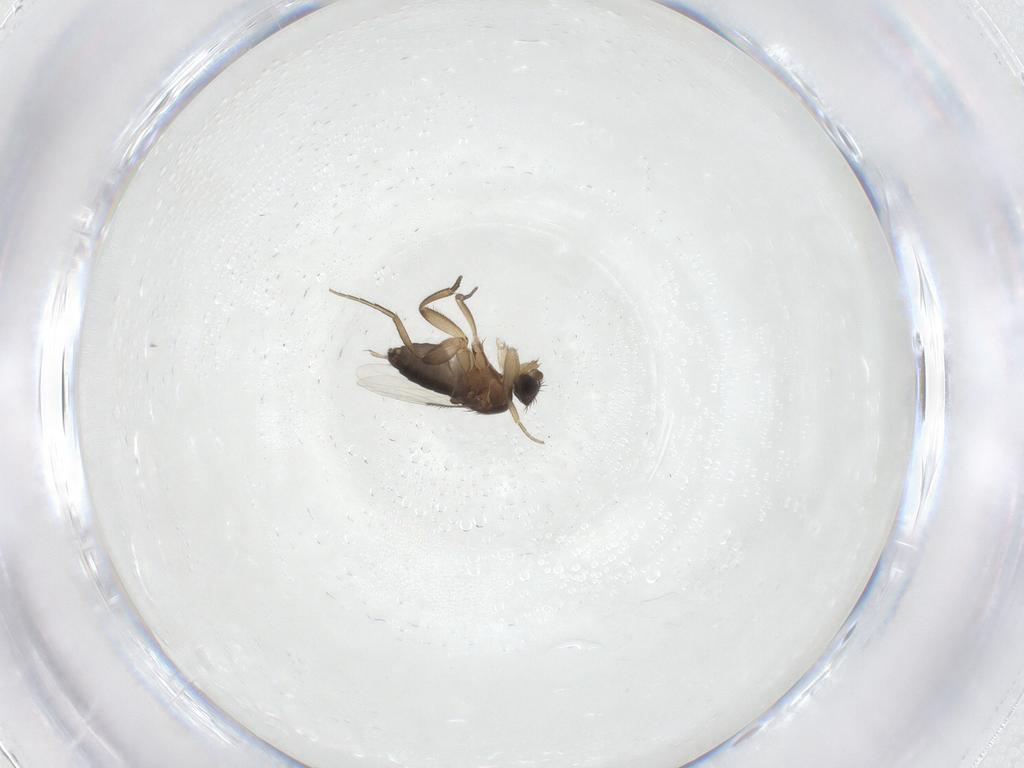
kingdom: Animalia
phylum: Arthropoda
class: Insecta
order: Diptera
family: Phoridae
